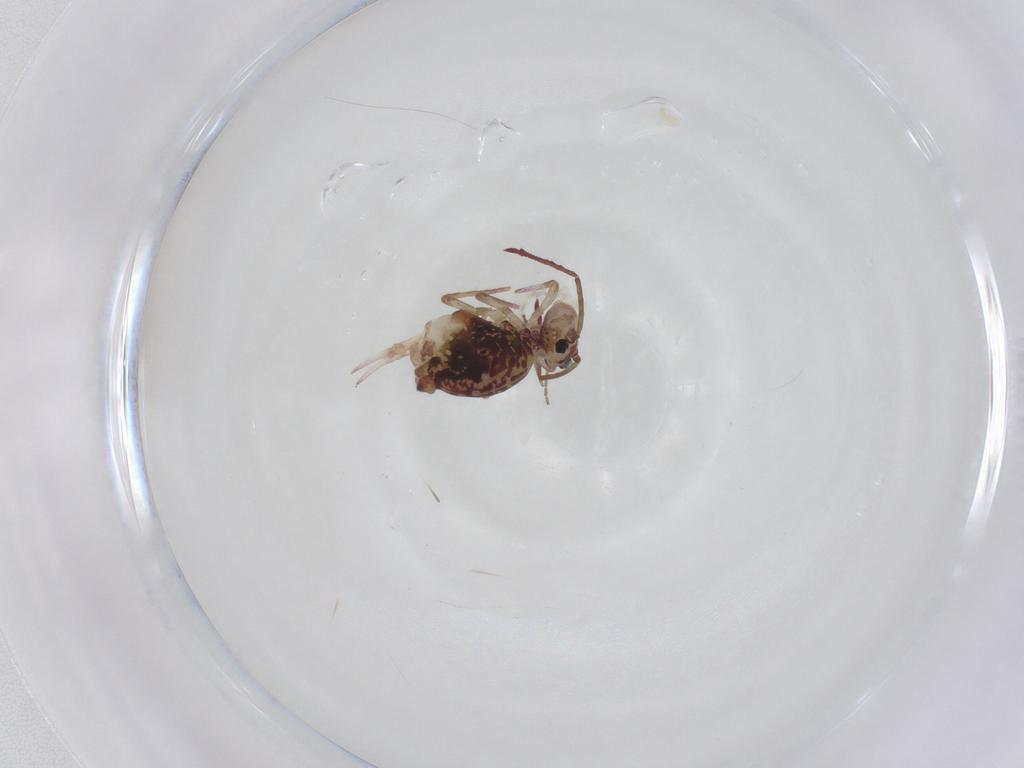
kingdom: Animalia
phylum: Arthropoda
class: Collembola
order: Symphypleona
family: Dicyrtomidae
